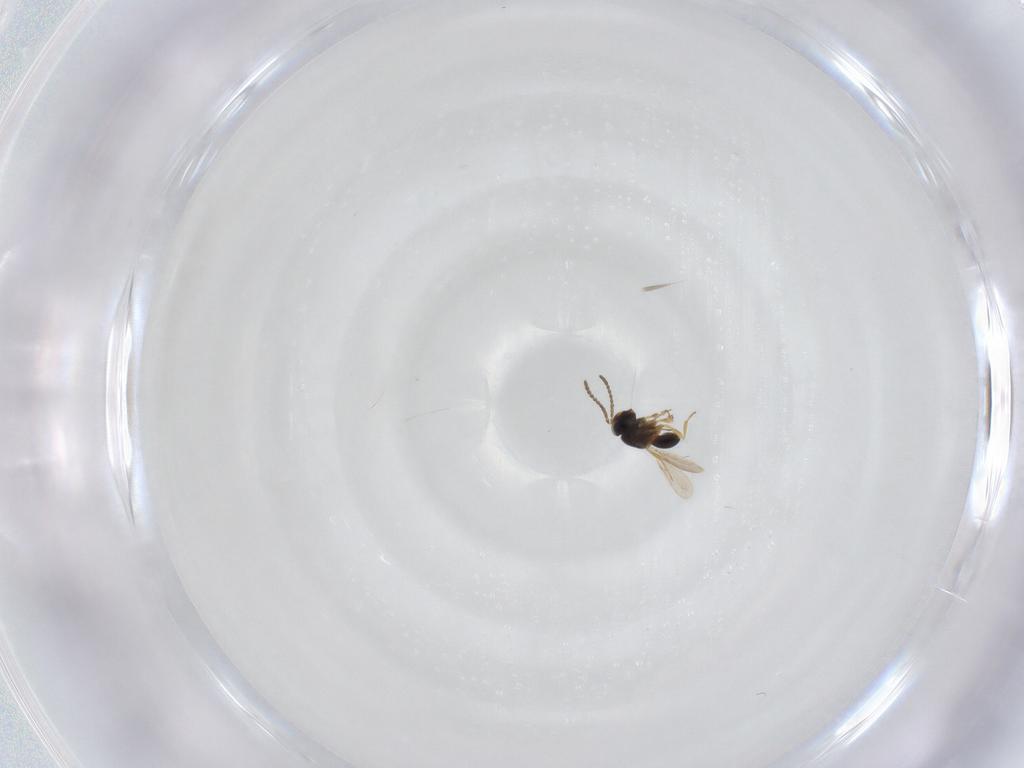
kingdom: Animalia
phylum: Arthropoda
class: Insecta
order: Hymenoptera
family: Scelionidae
